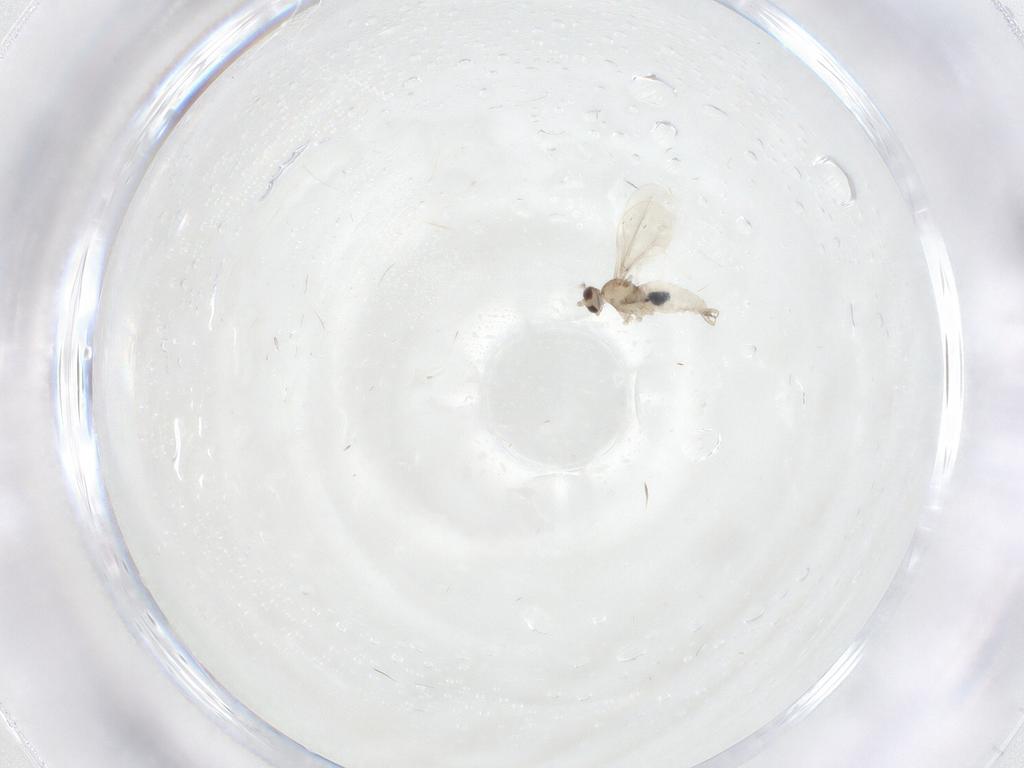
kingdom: Animalia
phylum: Arthropoda
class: Insecta
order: Diptera
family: Cecidomyiidae
